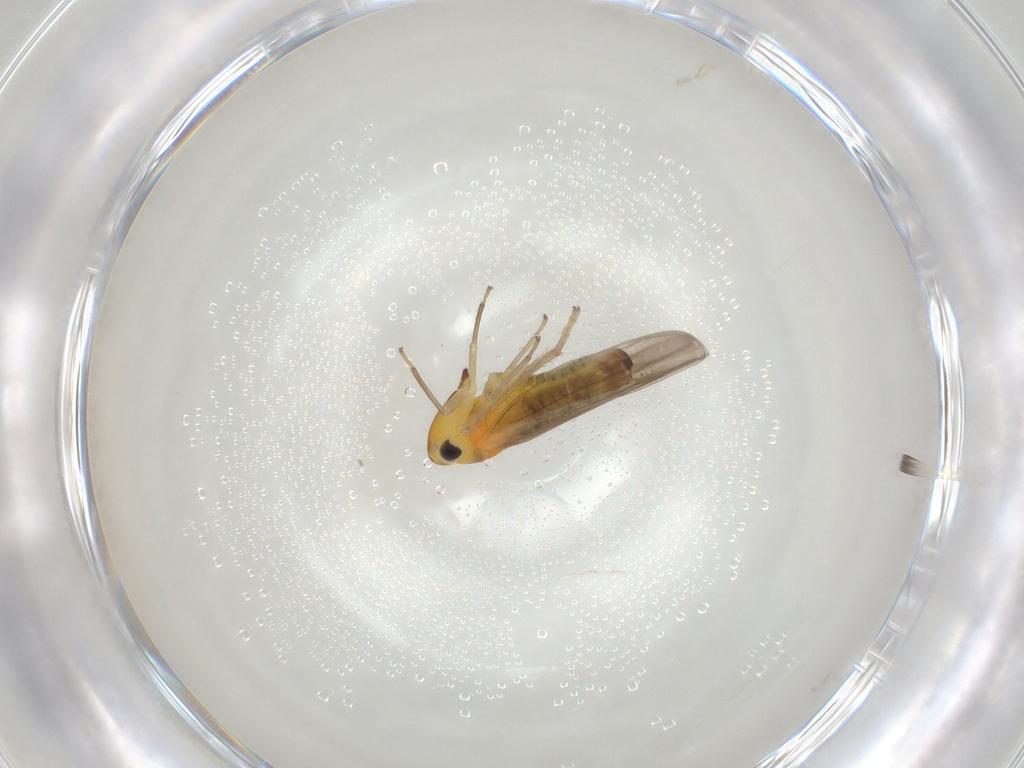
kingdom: Animalia
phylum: Arthropoda
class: Insecta
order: Hemiptera
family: Cicadellidae
